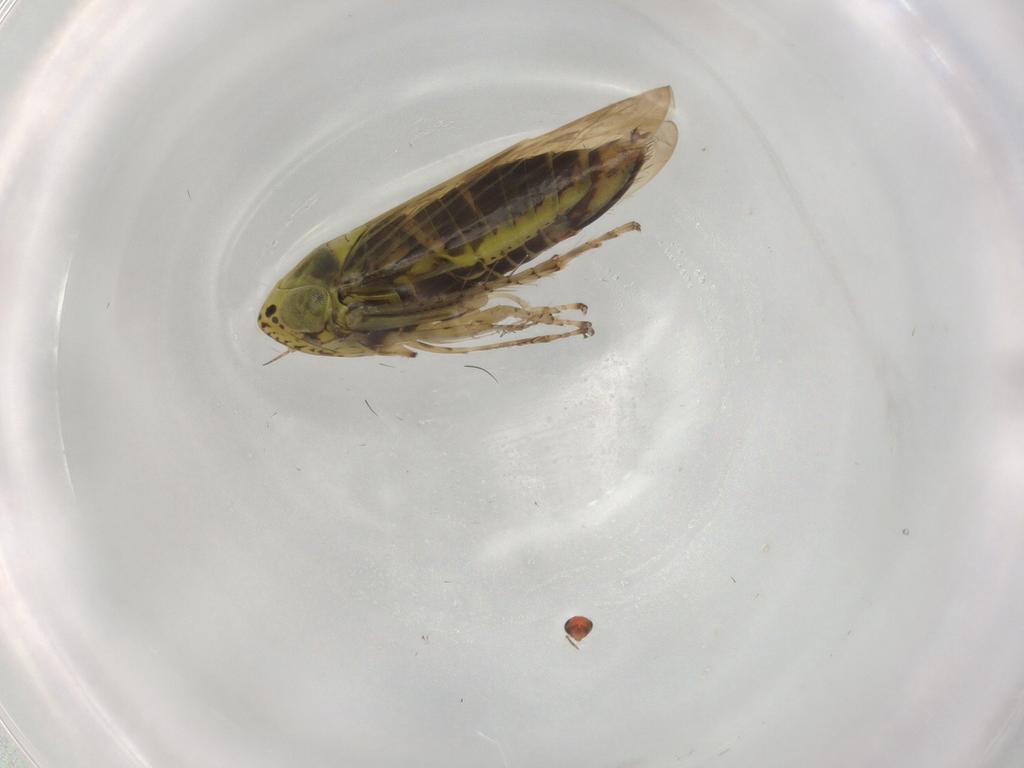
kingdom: Animalia
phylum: Arthropoda
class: Insecta
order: Hemiptera
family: Cicadellidae
